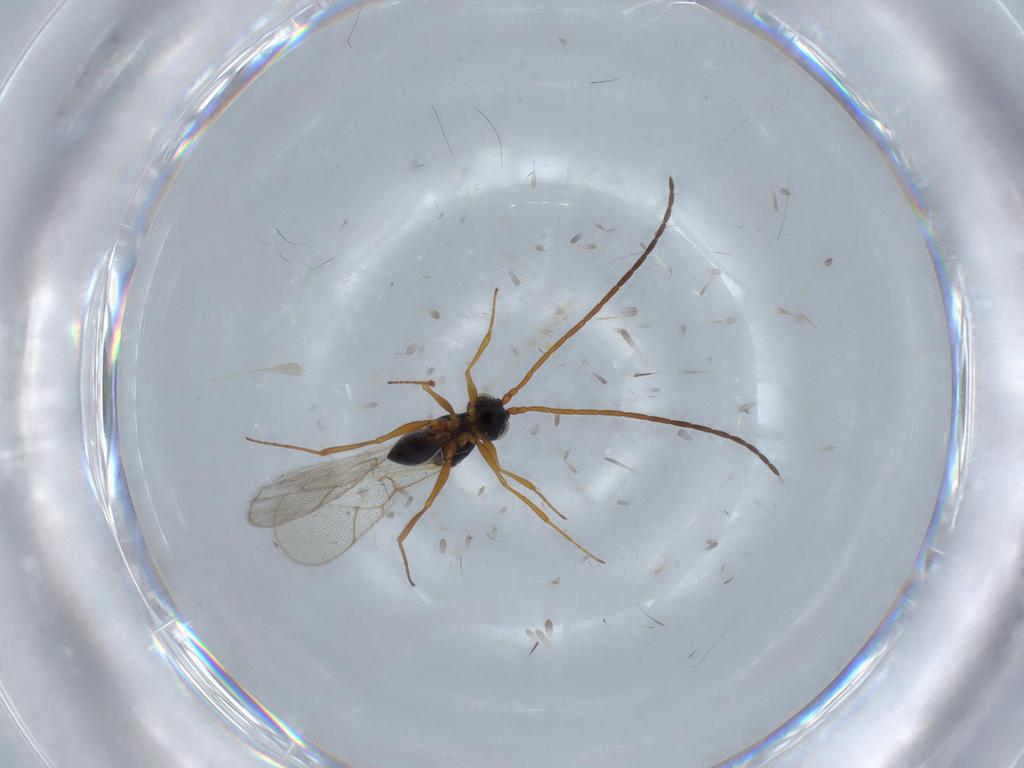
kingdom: Animalia
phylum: Arthropoda
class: Insecta
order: Hymenoptera
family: Figitidae
